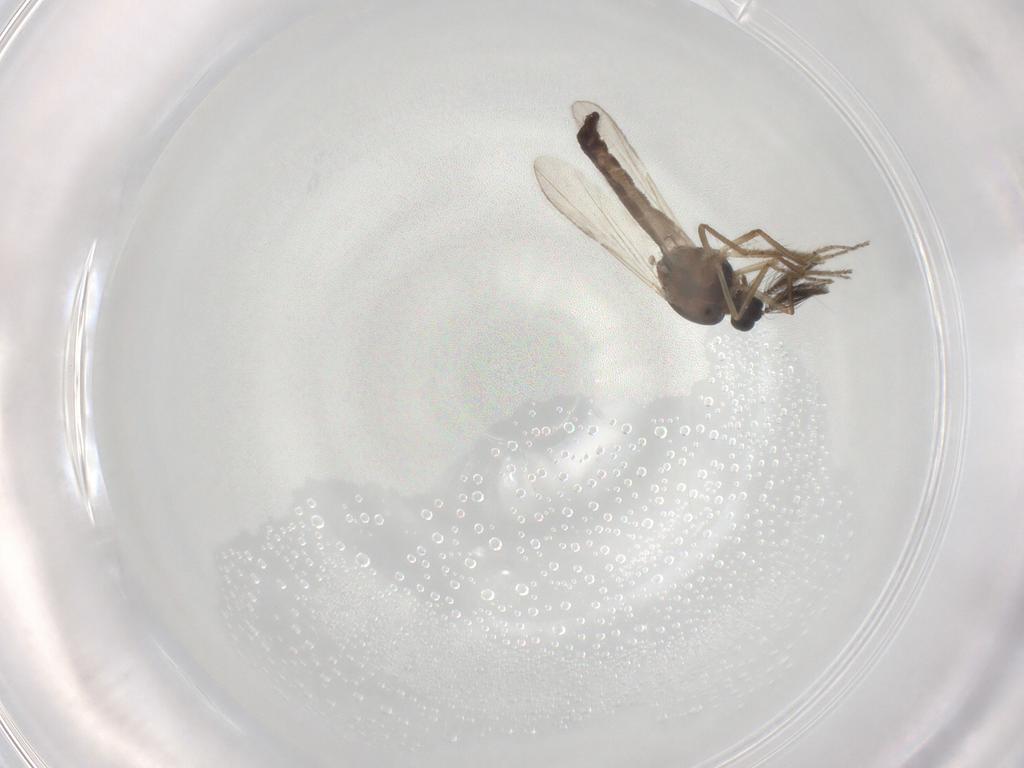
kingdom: Animalia
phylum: Arthropoda
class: Insecta
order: Diptera
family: Ceratopogonidae
